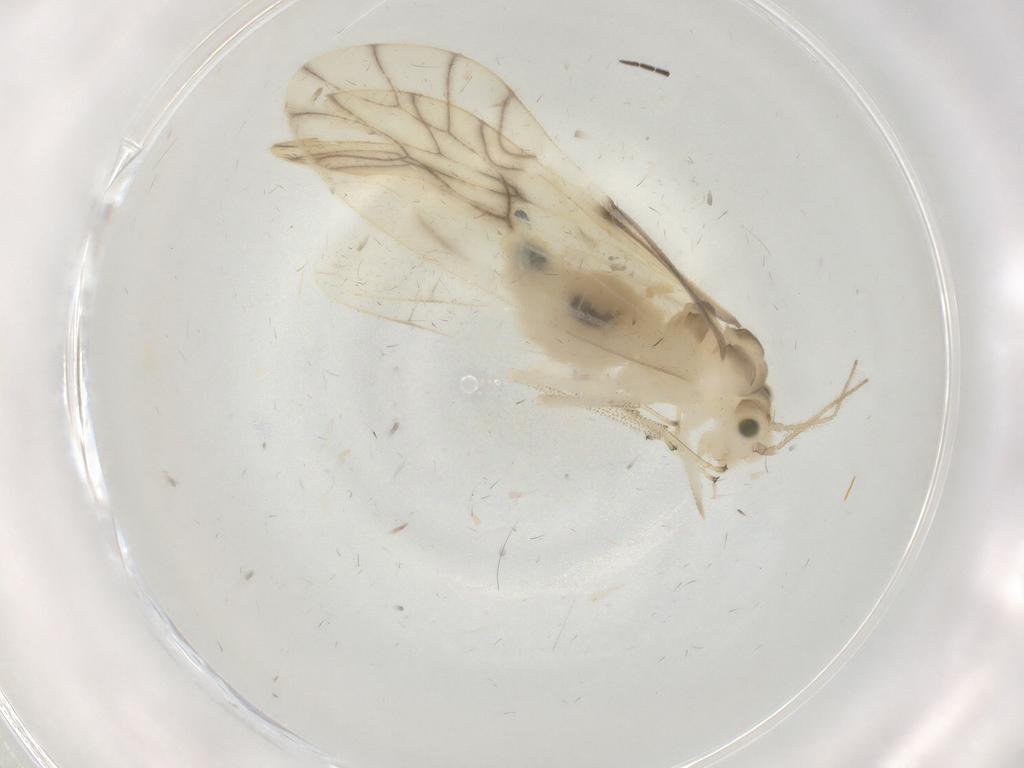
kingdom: Animalia
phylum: Arthropoda
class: Insecta
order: Psocodea
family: Caeciliusidae
